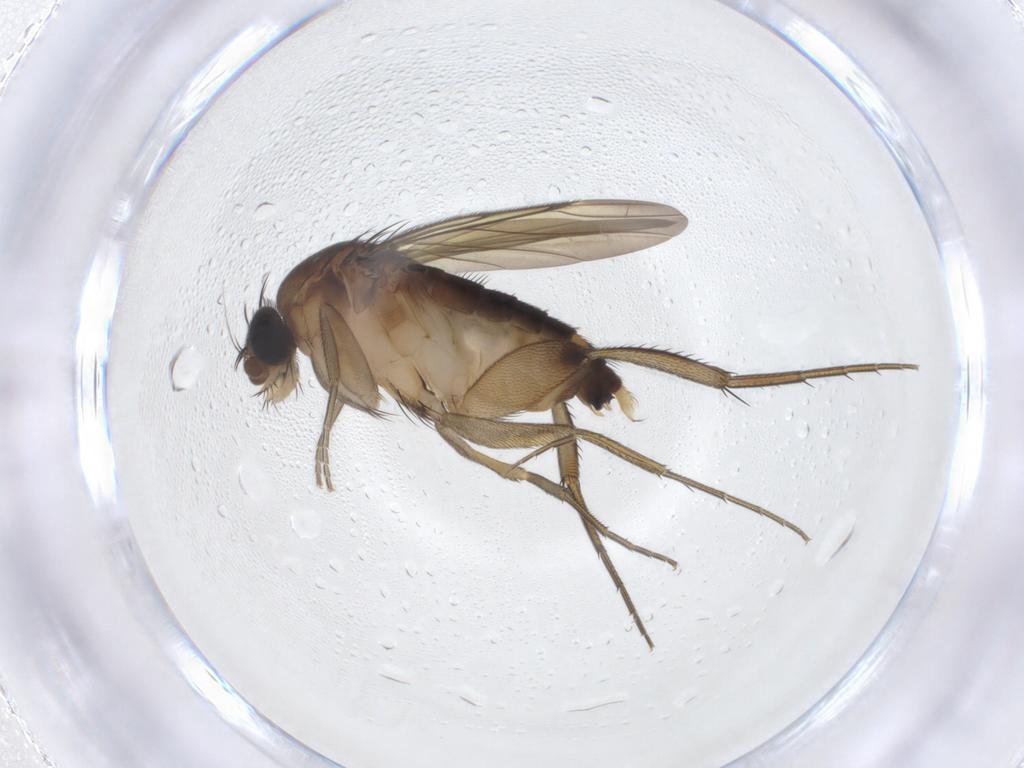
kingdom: Animalia
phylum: Arthropoda
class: Insecta
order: Diptera
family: Phoridae
